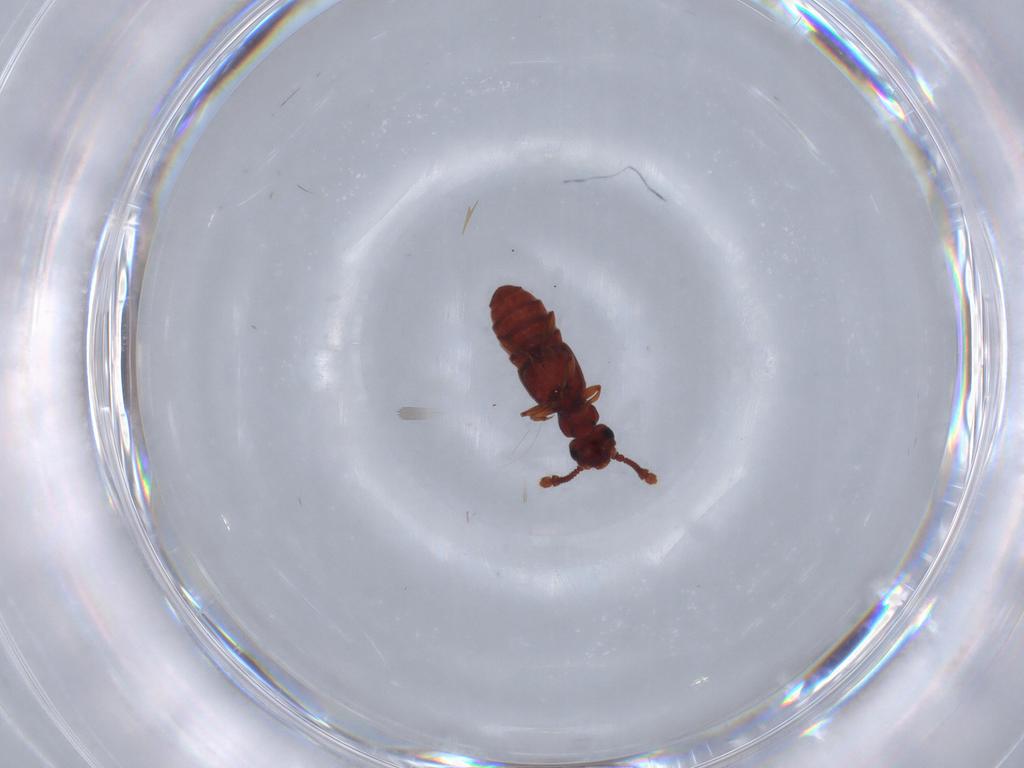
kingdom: Animalia
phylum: Arthropoda
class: Insecta
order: Coleoptera
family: Staphylinidae
